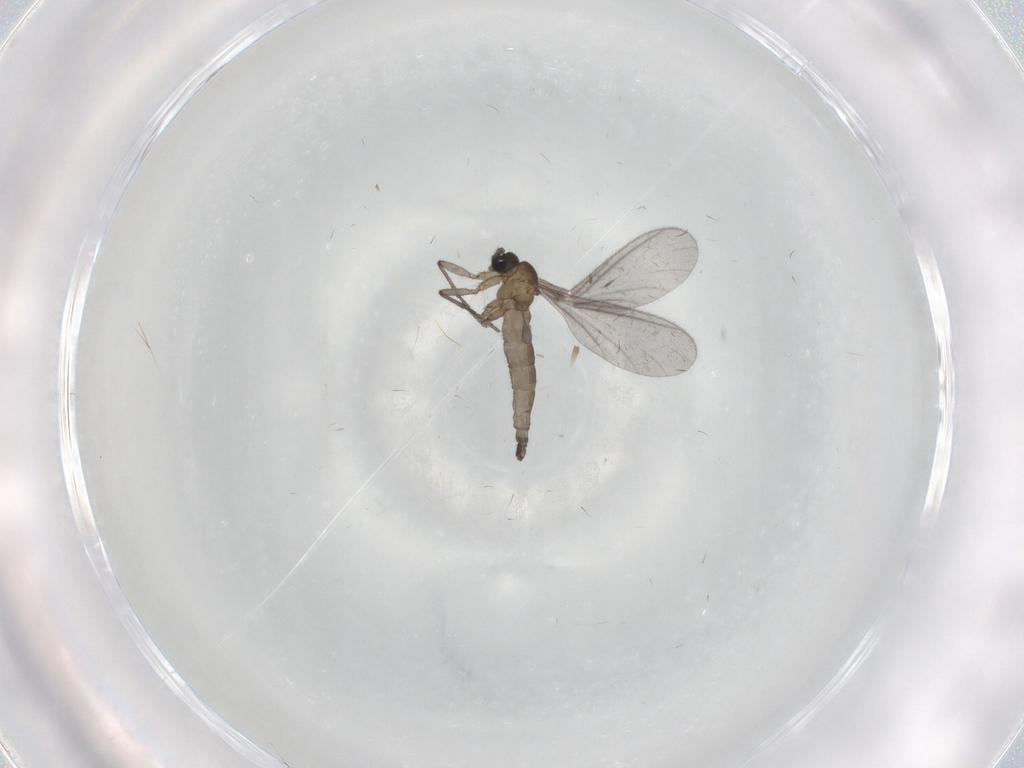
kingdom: Animalia
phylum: Arthropoda
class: Insecta
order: Diptera
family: Sciaridae
